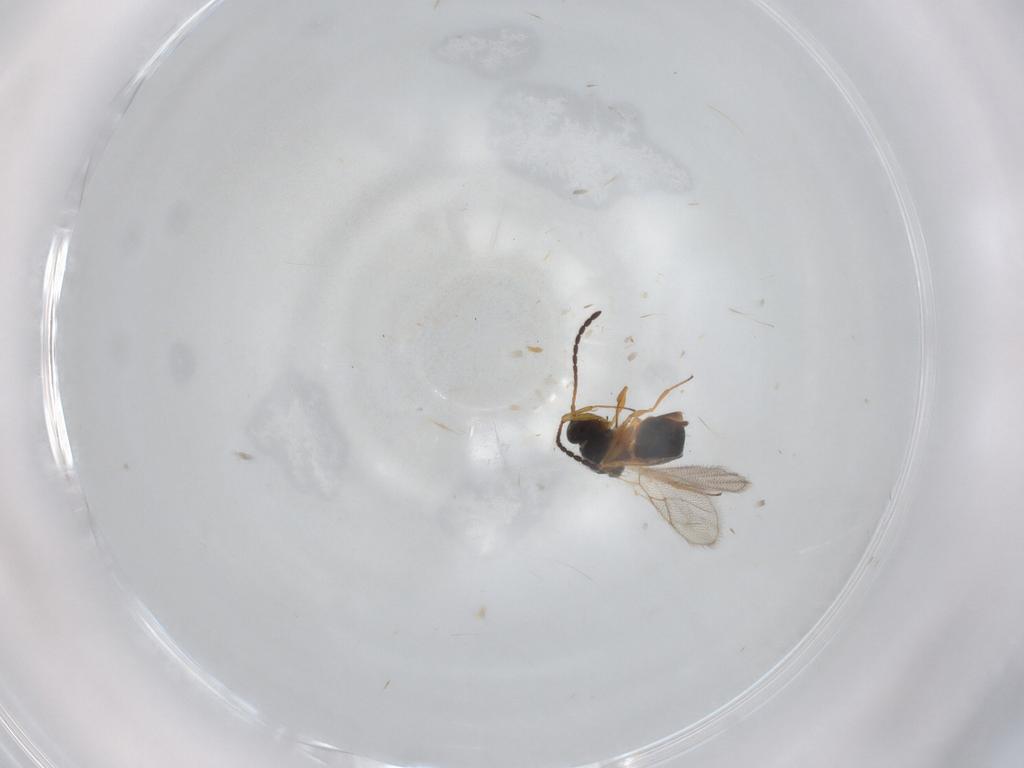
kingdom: Animalia
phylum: Arthropoda
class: Insecta
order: Hymenoptera
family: Figitidae
